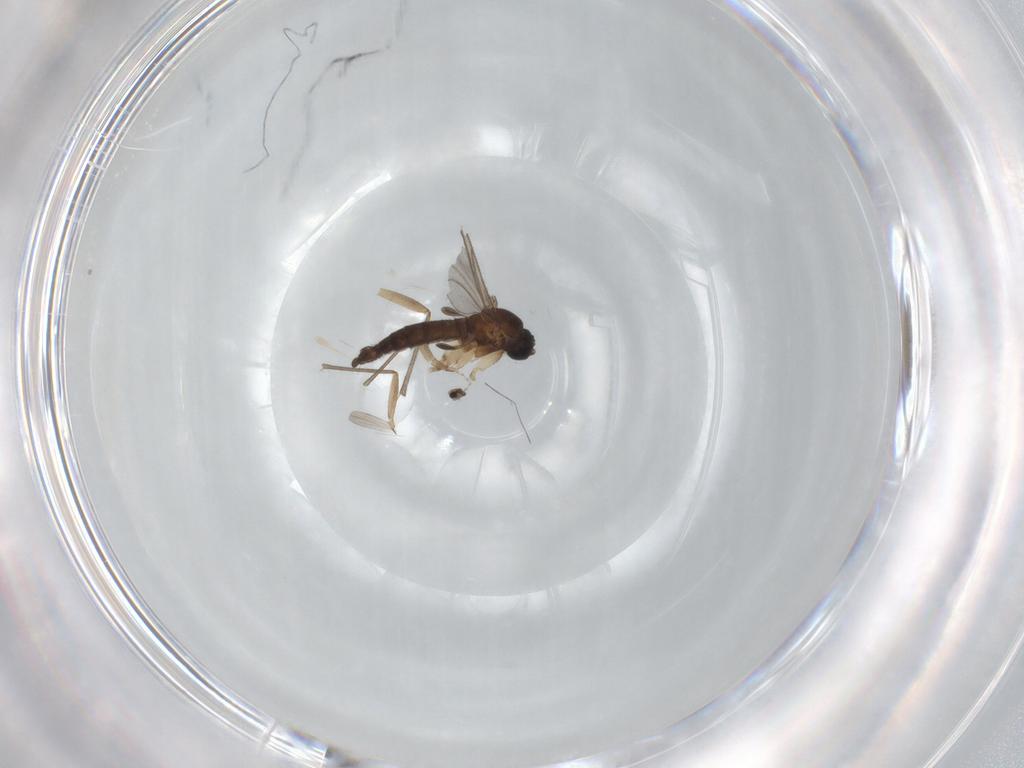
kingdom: Animalia
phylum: Arthropoda
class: Insecta
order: Diptera
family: Cecidomyiidae
